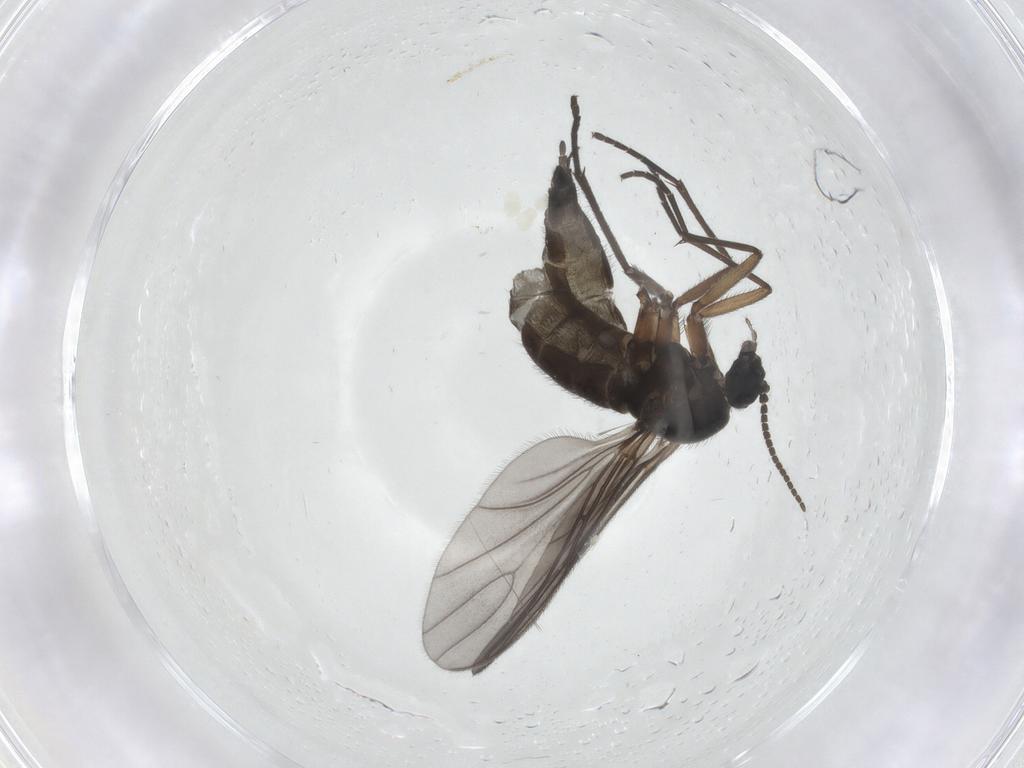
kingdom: Animalia
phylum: Arthropoda
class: Insecta
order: Diptera
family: Sciaridae
